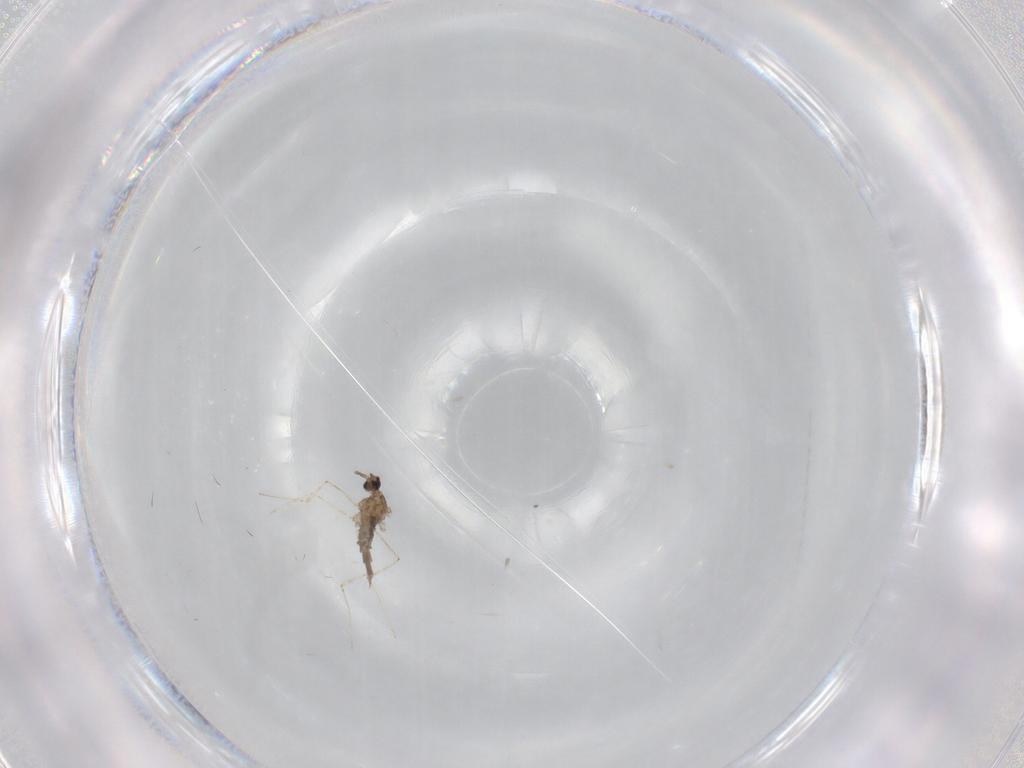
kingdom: Animalia
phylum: Arthropoda
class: Insecta
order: Diptera
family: Cecidomyiidae
